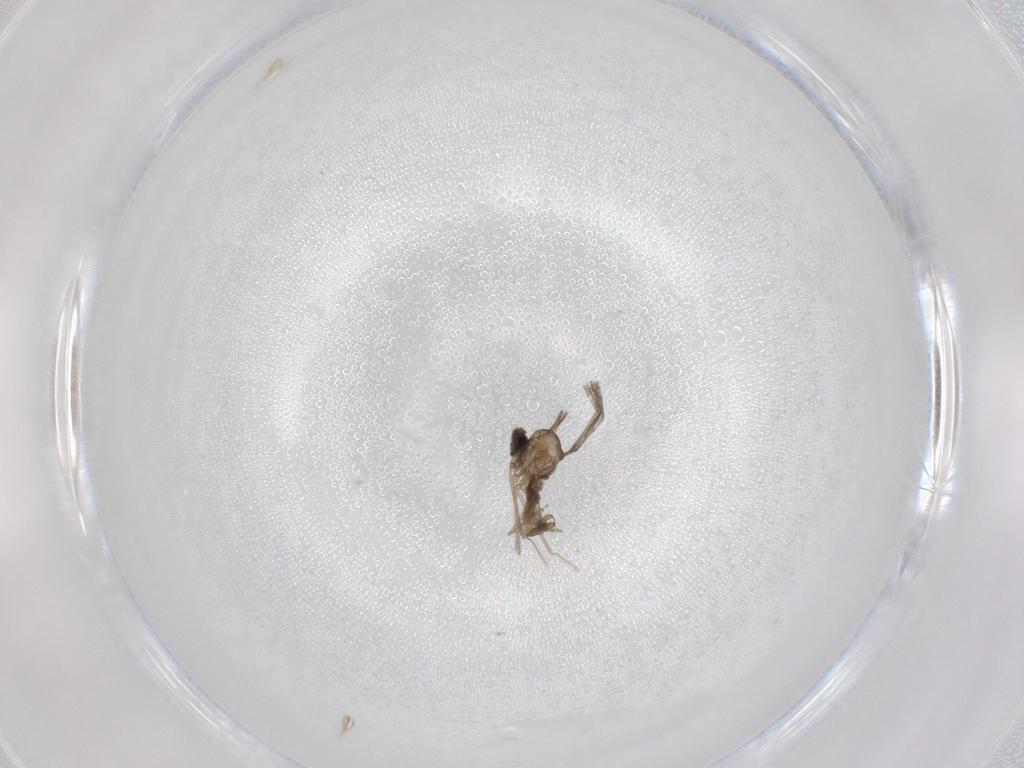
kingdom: Animalia
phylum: Arthropoda
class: Insecta
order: Diptera
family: Cecidomyiidae
